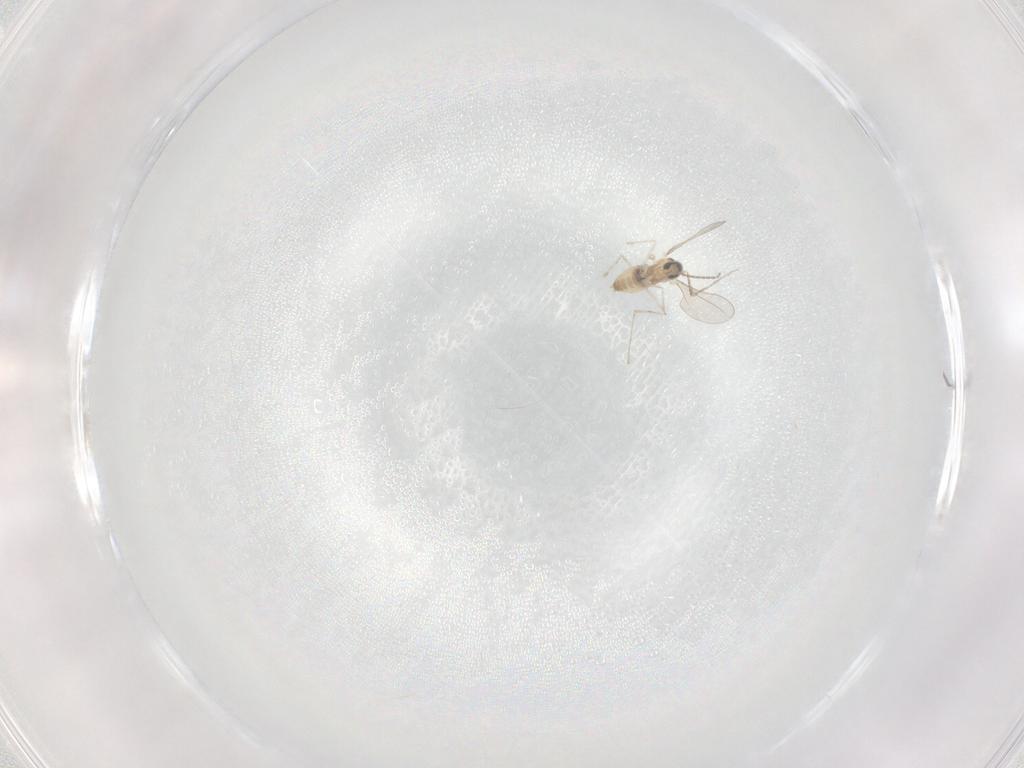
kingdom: Animalia
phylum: Arthropoda
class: Insecta
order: Diptera
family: Cecidomyiidae
